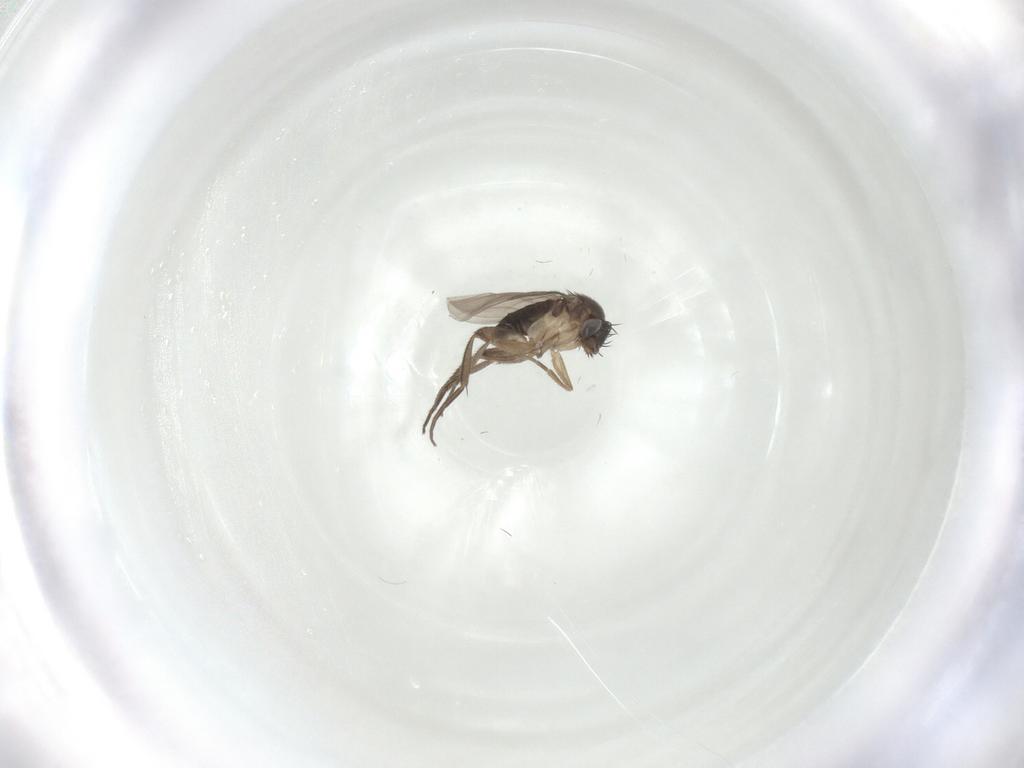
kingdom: Animalia
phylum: Arthropoda
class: Insecta
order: Diptera
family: Phoridae
